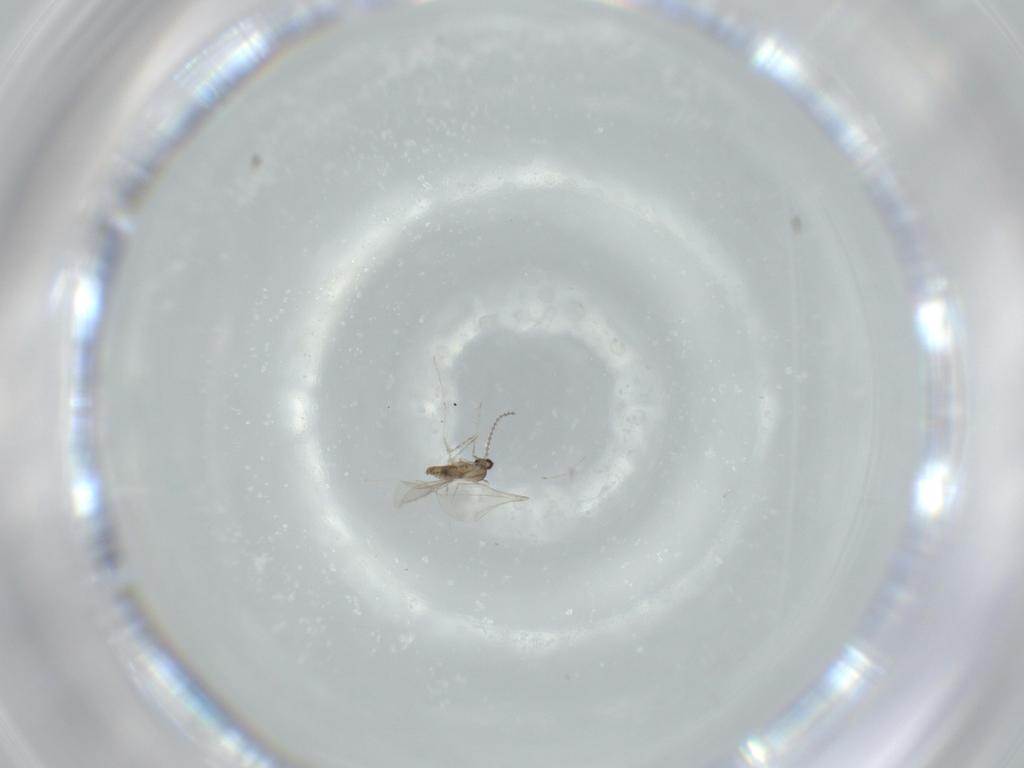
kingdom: Animalia
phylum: Arthropoda
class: Insecta
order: Diptera
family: Cecidomyiidae
